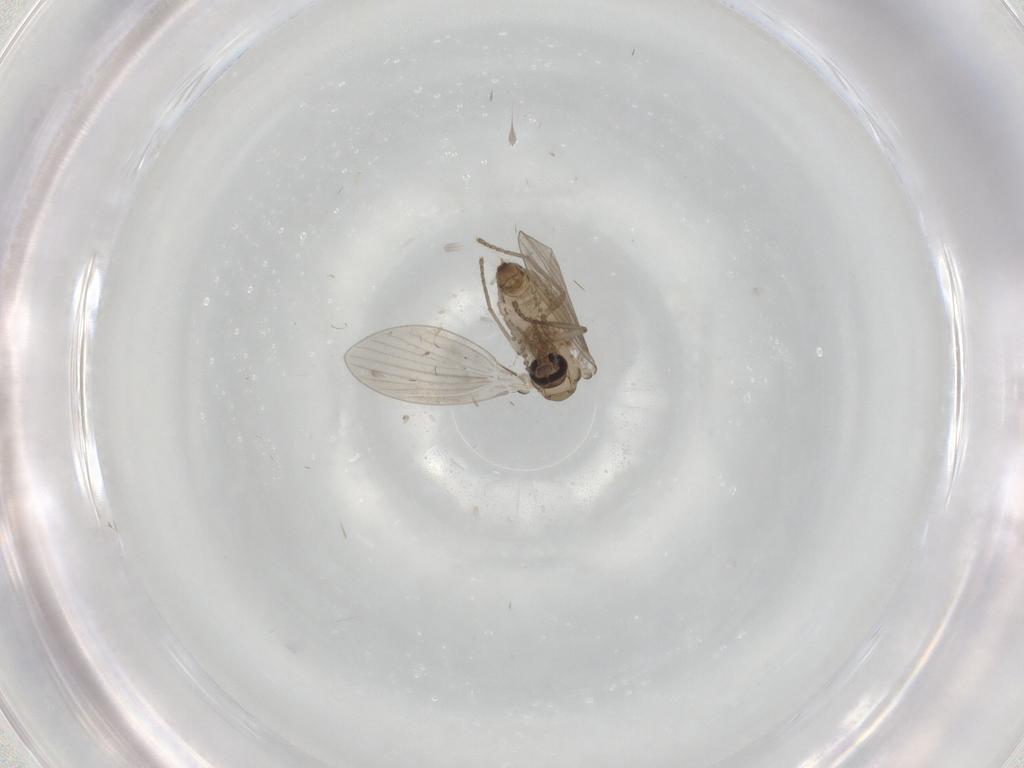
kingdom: Animalia
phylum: Arthropoda
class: Insecta
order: Diptera
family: Psychodidae
